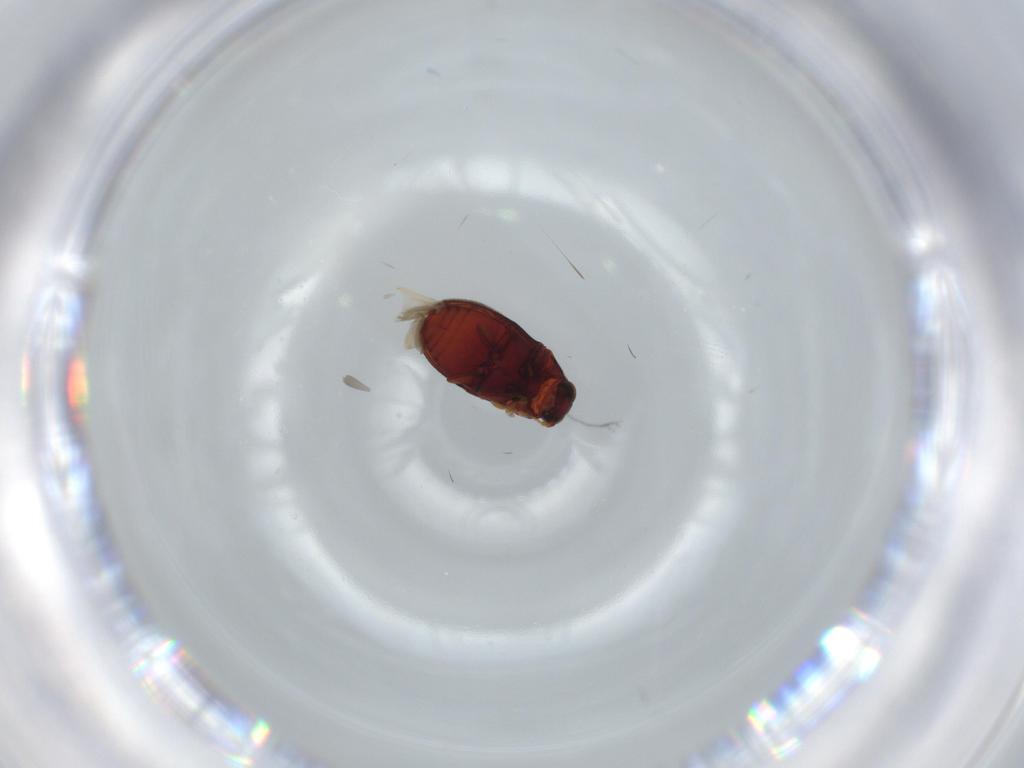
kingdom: Animalia
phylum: Arthropoda
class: Insecta
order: Coleoptera
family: Ptinidae
